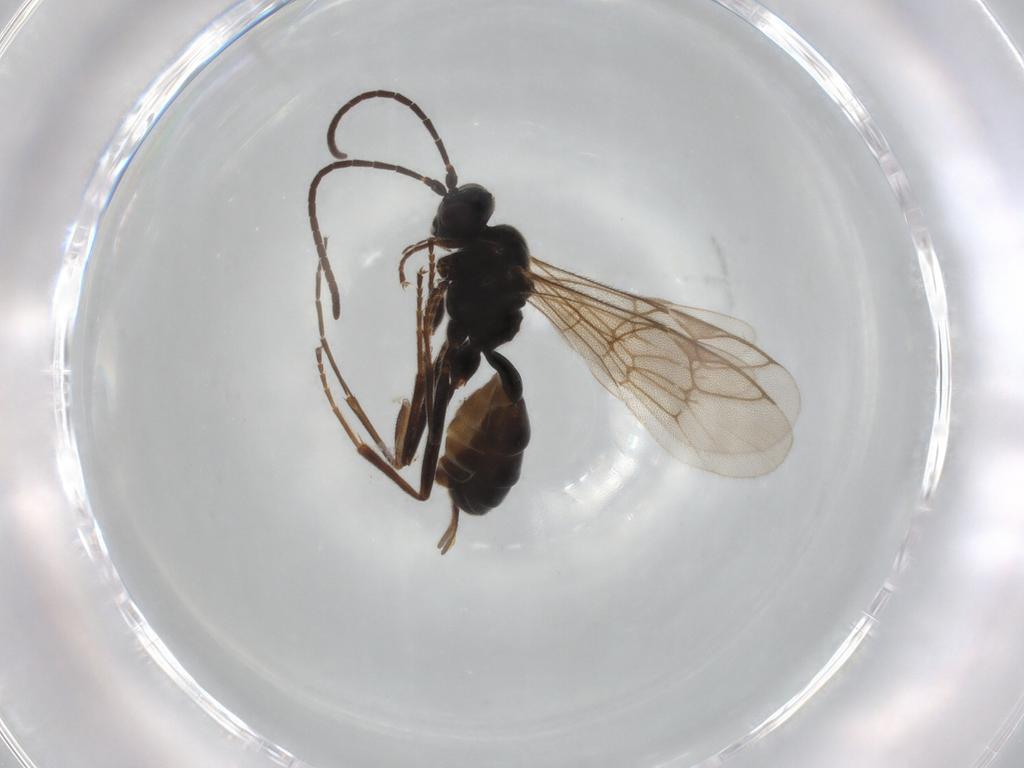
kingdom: Animalia
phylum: Arthropoda
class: Insecta
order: Hymenoptera
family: Ichneumonidae
